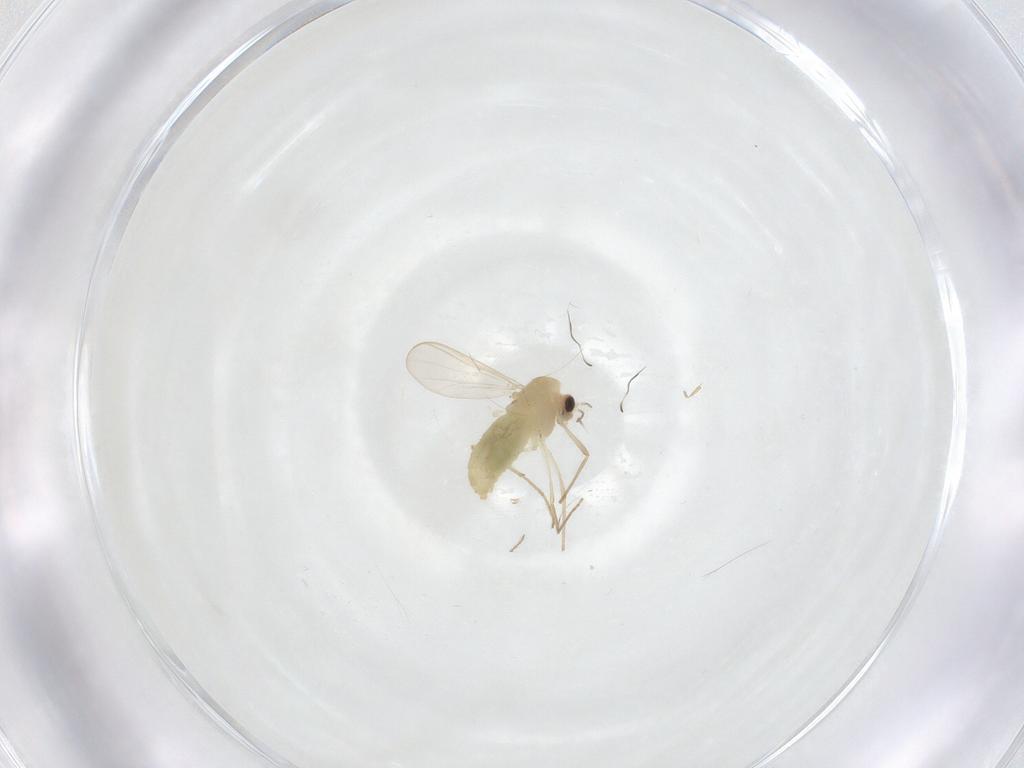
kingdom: Animalia
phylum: Arthropoda
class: Insecta
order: Diptera
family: Chironomidae
